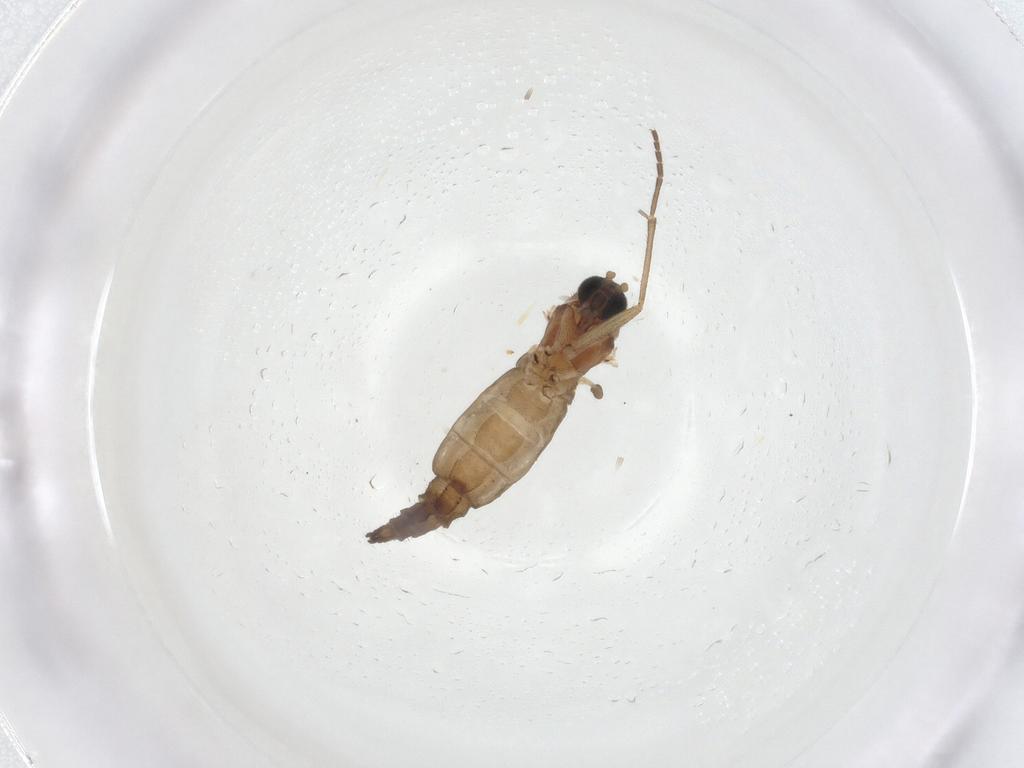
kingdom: Animalia
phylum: Arthropoda
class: Insecta
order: Diptera
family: Sciaridae
